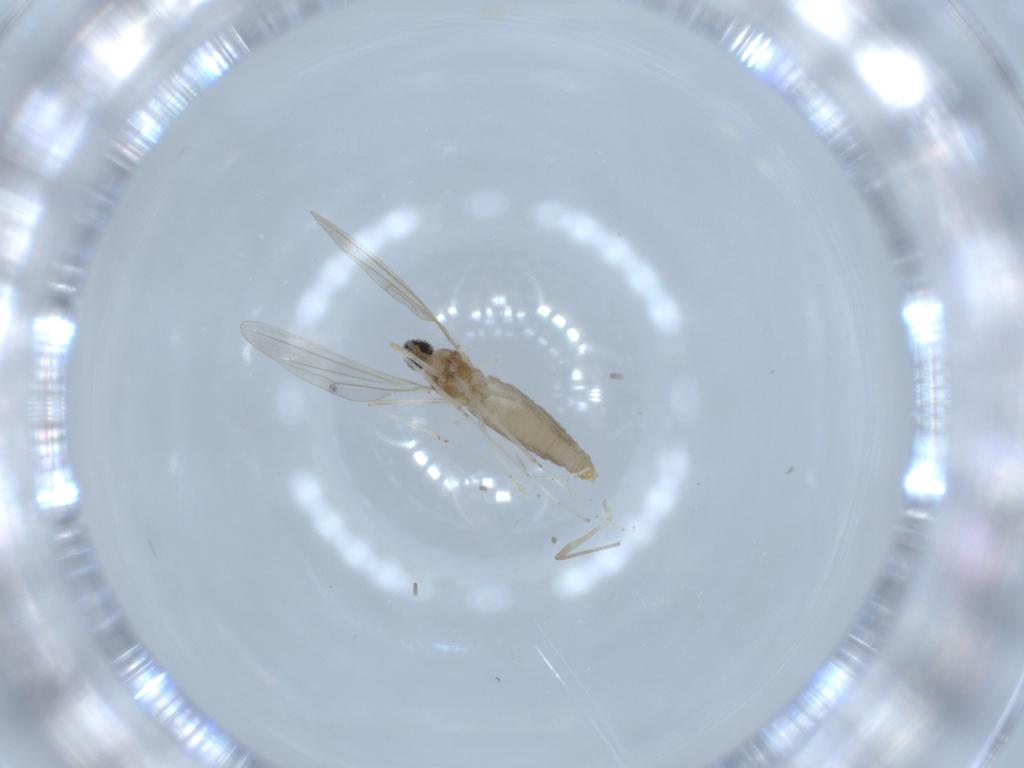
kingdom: Animalia
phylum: Arthropoda
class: Insecta
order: Diptera
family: Cecidomyiidae
